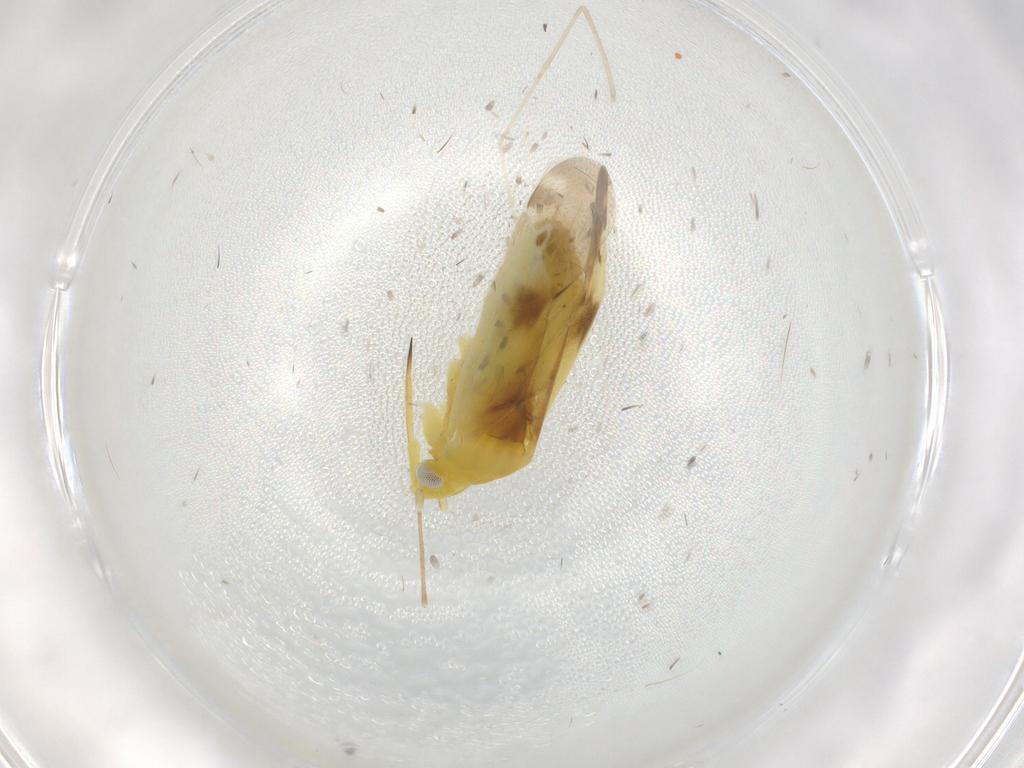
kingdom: Animalia
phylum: Arthropoda
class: Insecta
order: Hemiptera
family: Miridae
